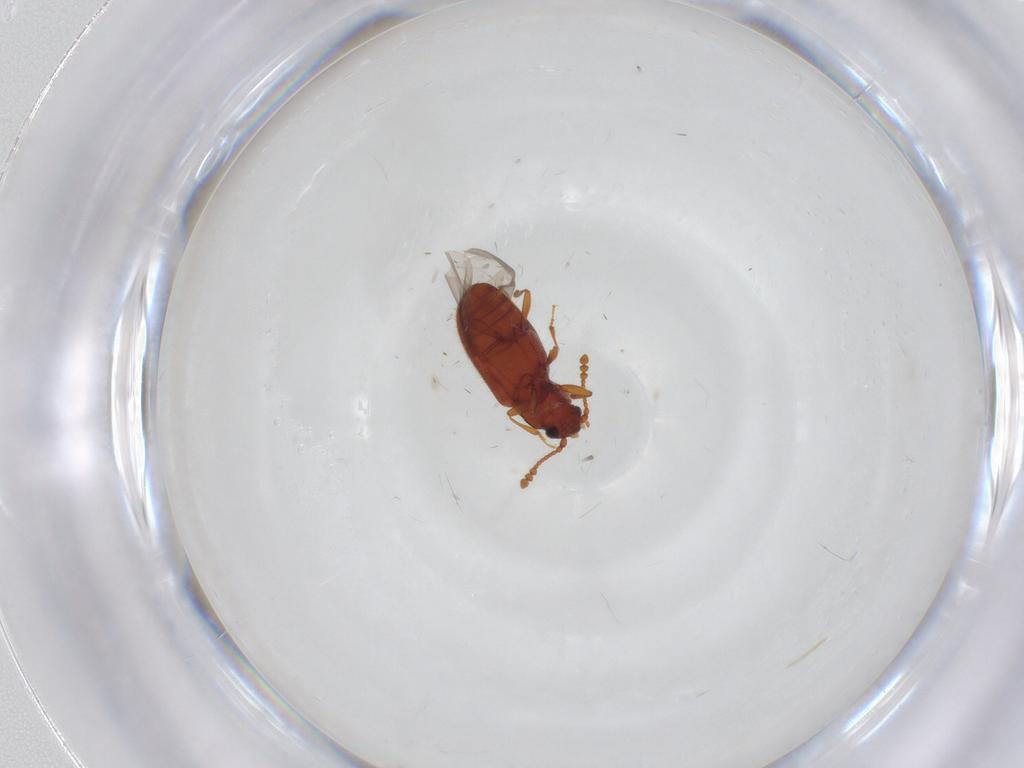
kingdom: Animalia
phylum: Arthropoda
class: Insecta
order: Coleoptera
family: Cryptophagidae
